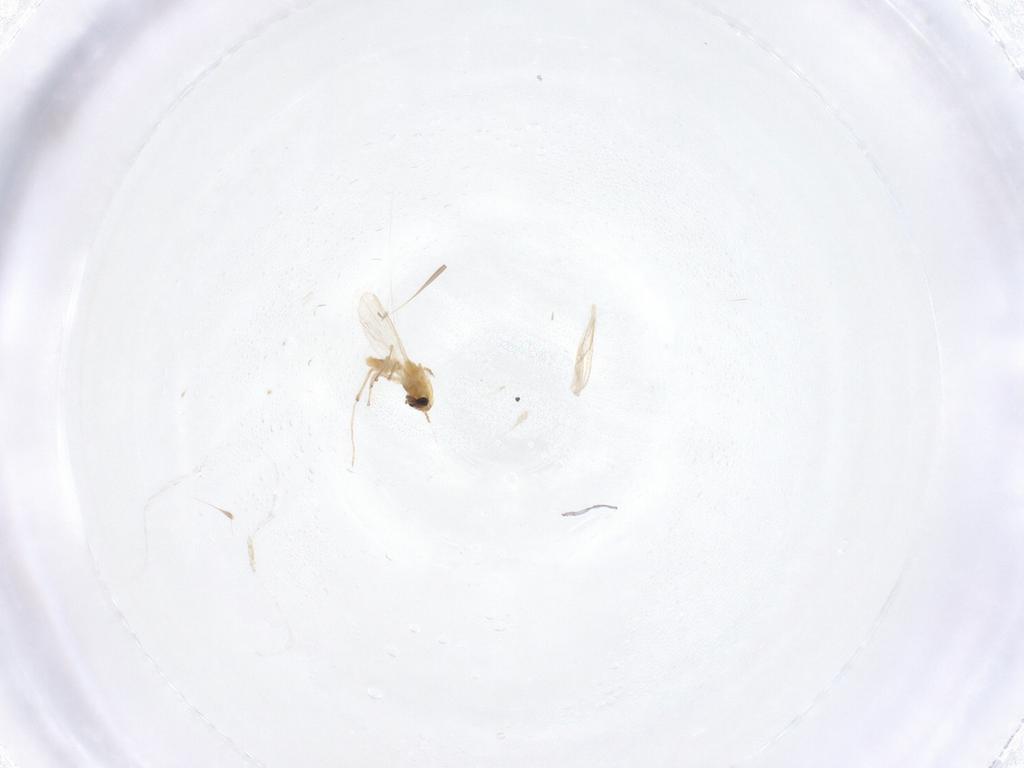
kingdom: Animalia
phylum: Arthropoda
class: Insecta
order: Diptera
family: Chironomidae
